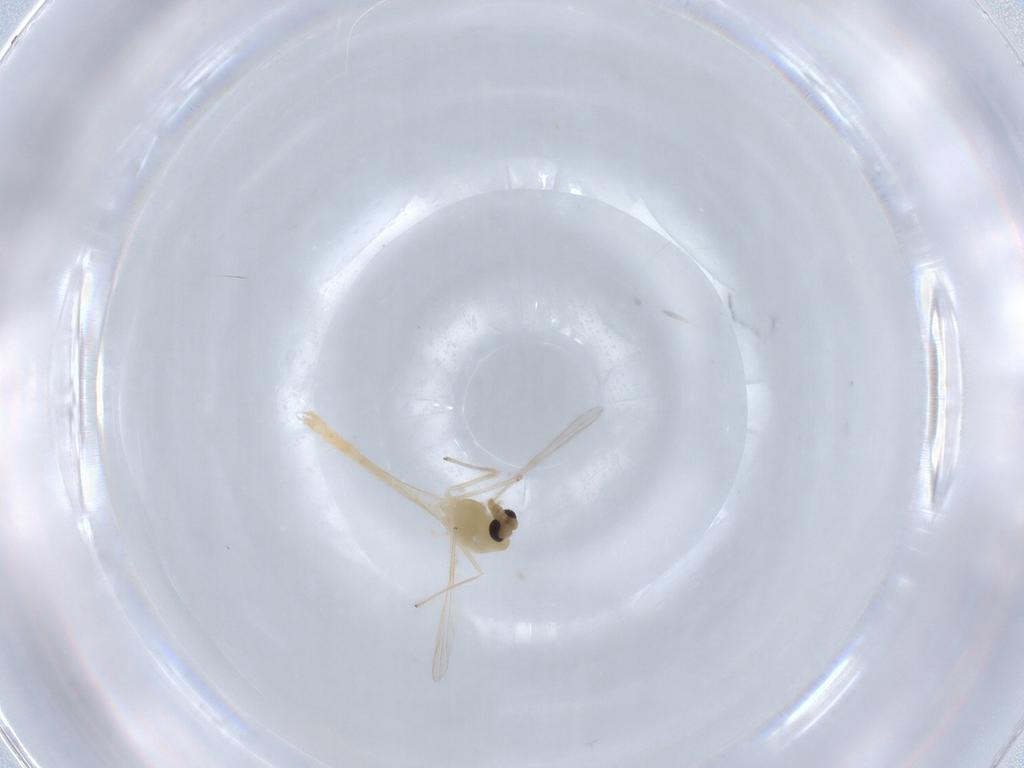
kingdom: Animalia
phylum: Arthropoda
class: Insecta
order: Diptera
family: Chironomidae
